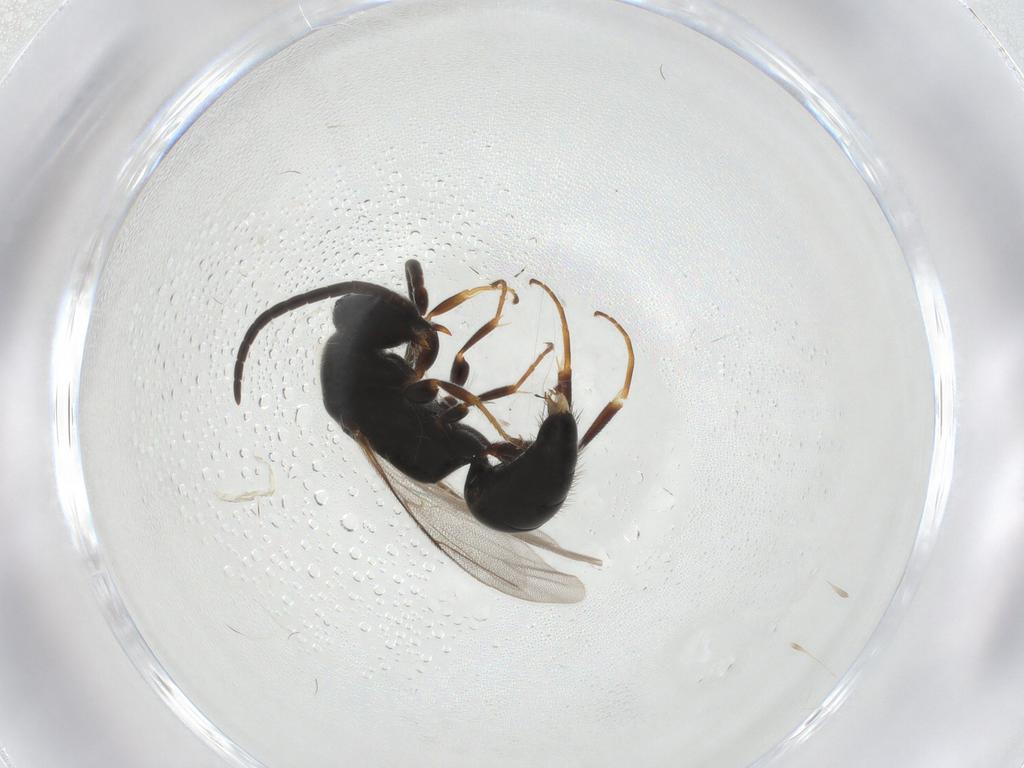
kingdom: Animalia
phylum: Arthropoda
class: Insecta
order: Hymenoptera
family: Bethylidae
